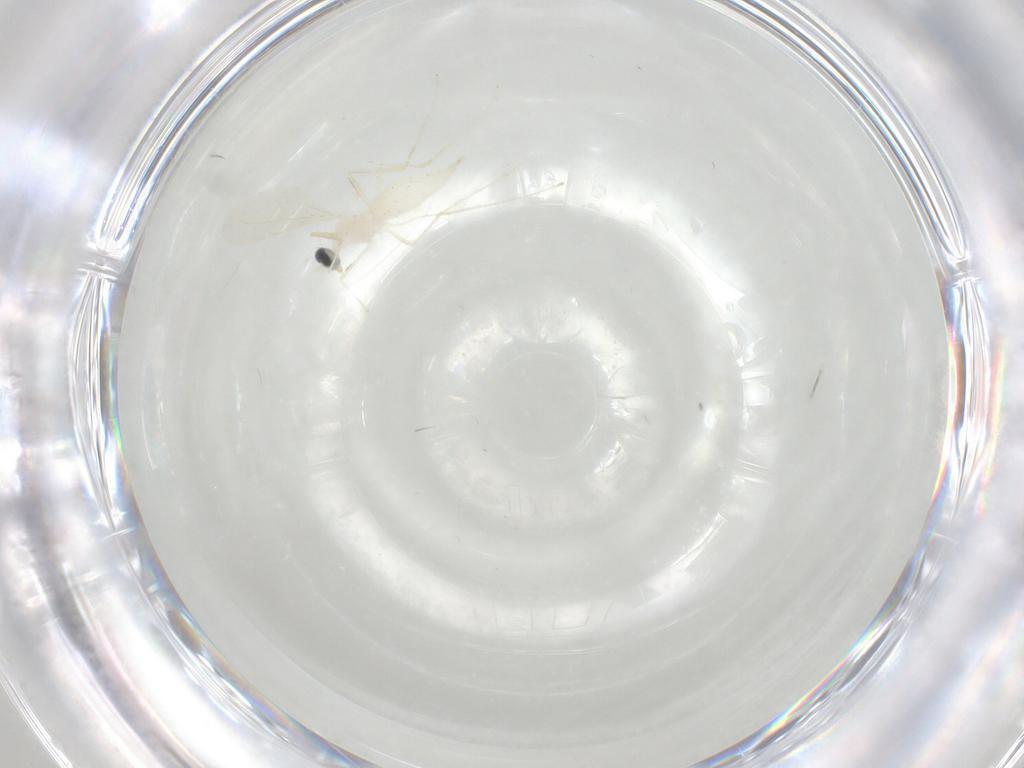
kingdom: Animalia
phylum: Arthropoda
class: Insecta
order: Diptera
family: Cecidomyiidae
